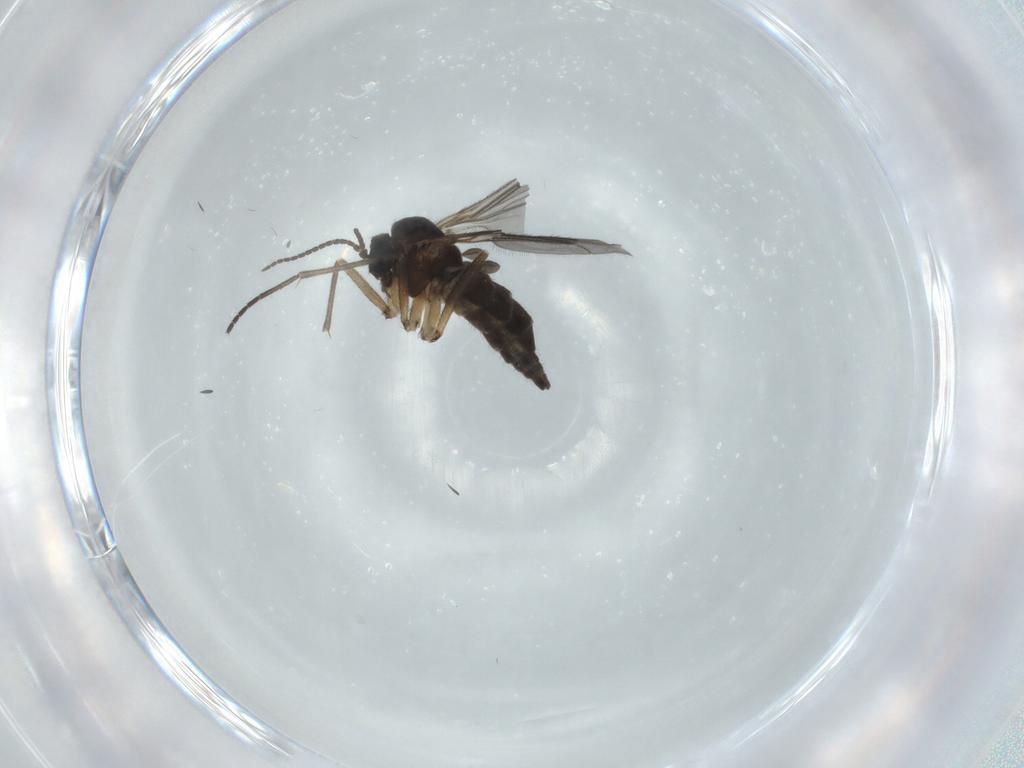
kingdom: Animalia
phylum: Arthropoda
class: Insecta
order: Diptera
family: Sciaridae
